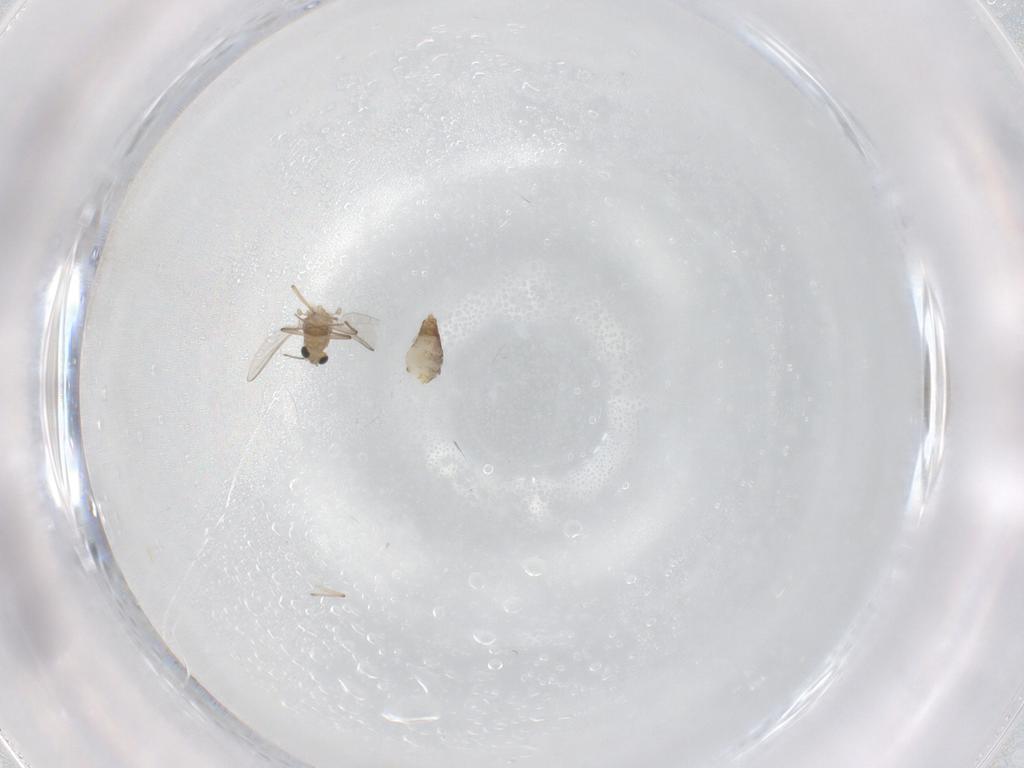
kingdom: Animalia
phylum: Arthropoda
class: Insecta
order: Diptera
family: Chironomidae
